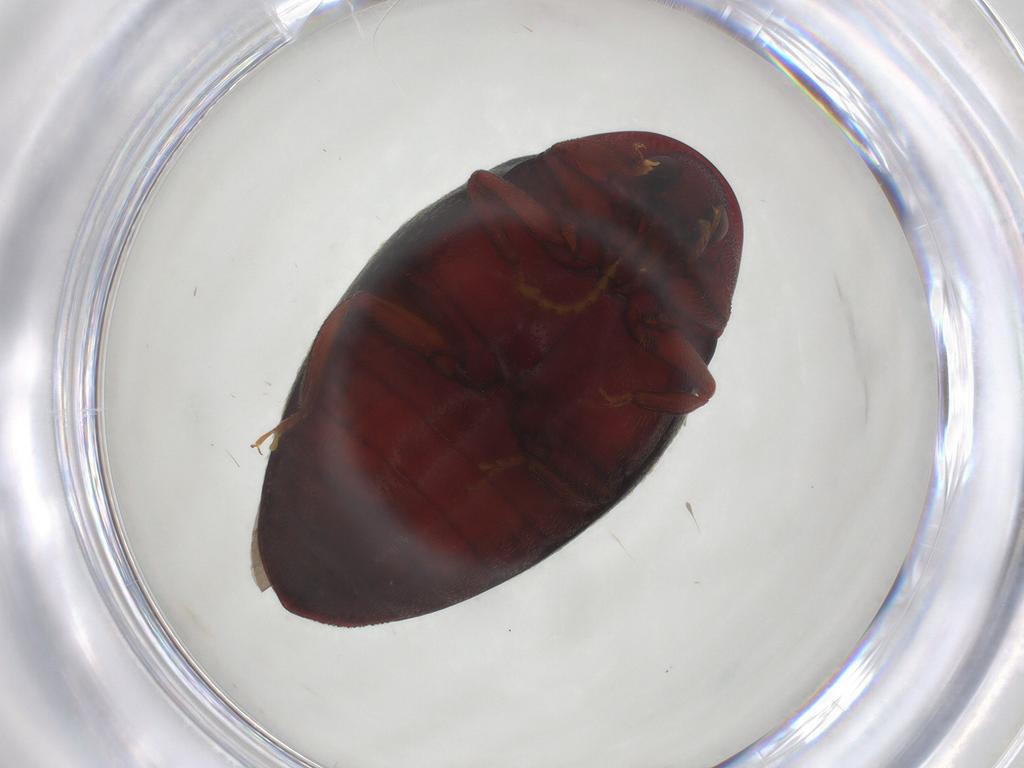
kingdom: Animalia
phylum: Arthropoda
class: Insecta
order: Coleoptera
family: Chelonariidae
